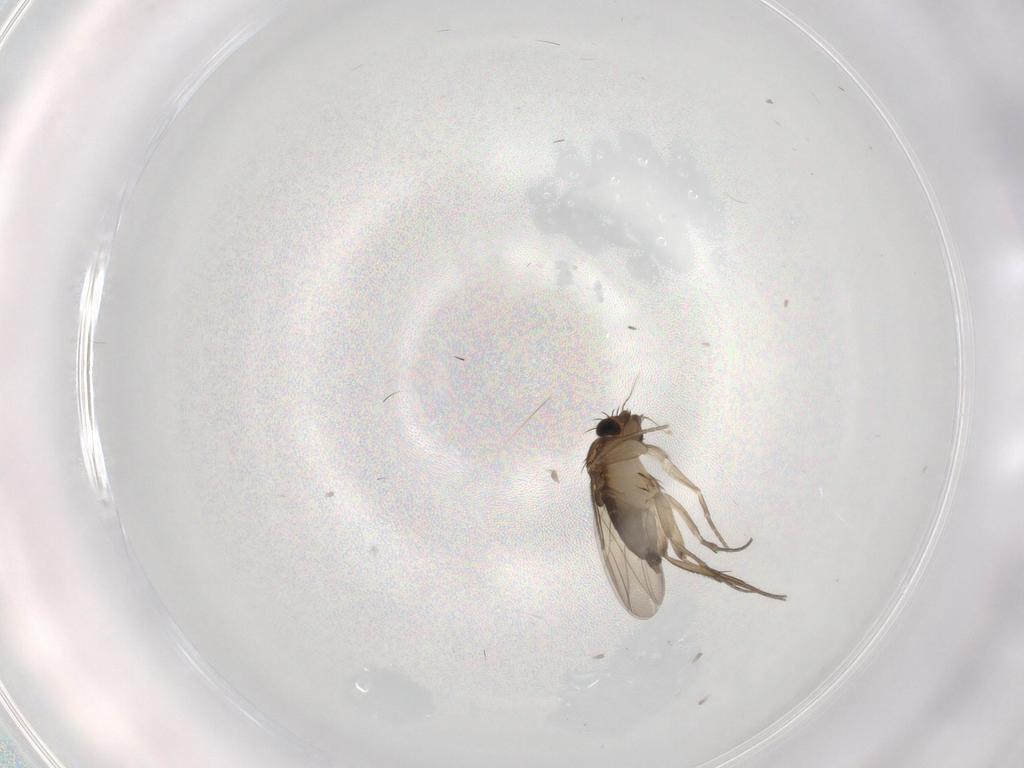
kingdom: Animalia
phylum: Arthropoda
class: Insecta
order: Diptera
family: Phoridae
